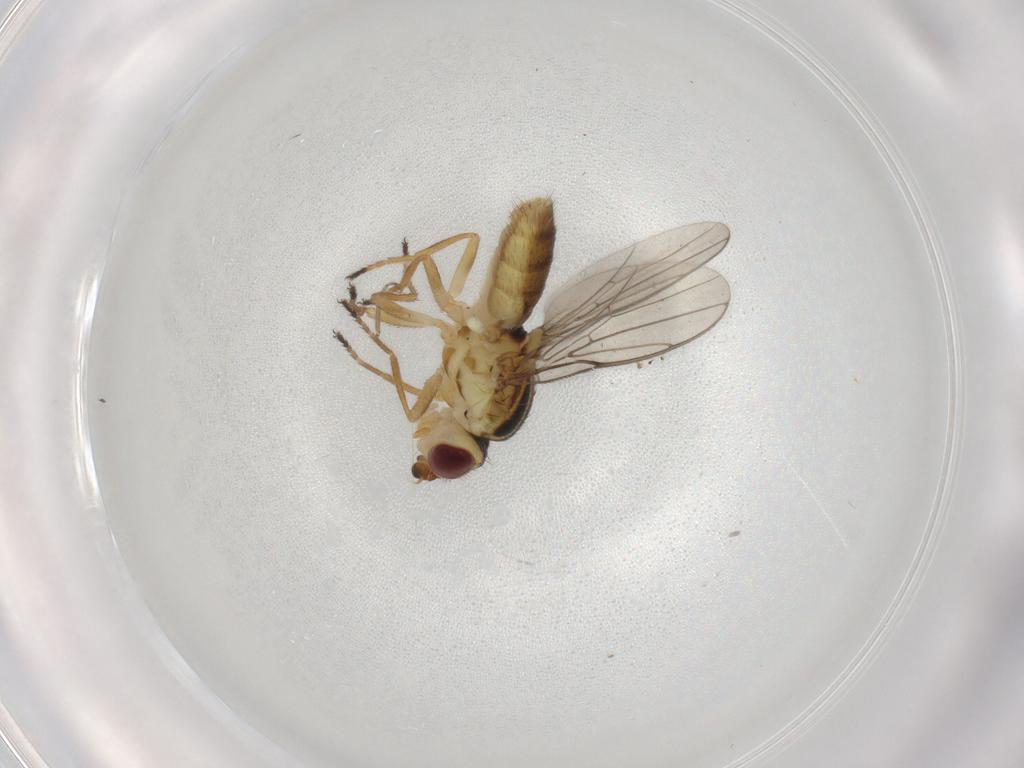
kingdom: Animalia
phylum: Arthropoda
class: Insecta
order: Diptera
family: Chloropidae
